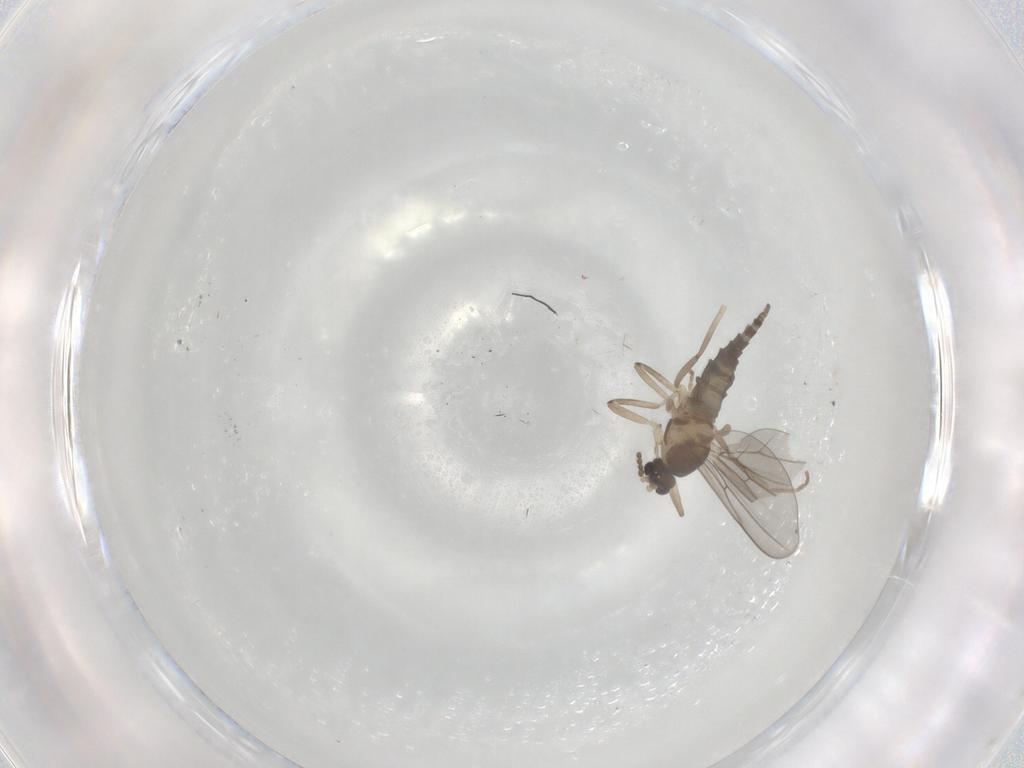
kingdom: Animalia
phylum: Arthropoda
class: Insecta
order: Diptera
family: Cecidomyiidae
